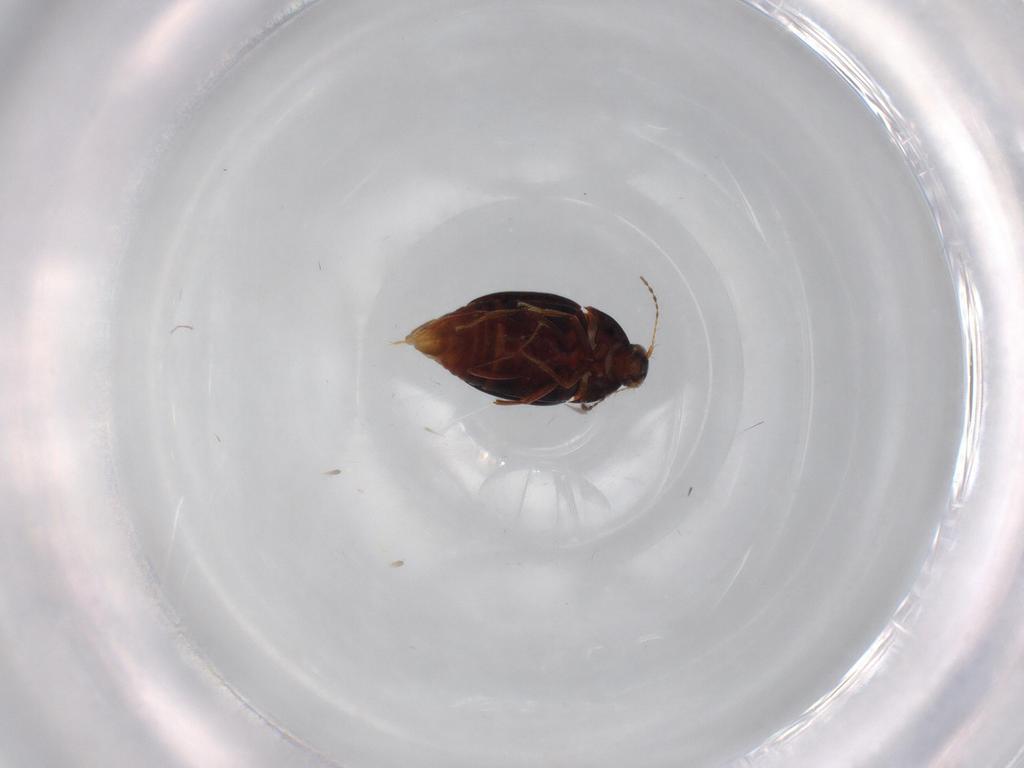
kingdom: Animalia
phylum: Arthropoda
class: Insecta
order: Coleoptera
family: Staphylinidae
